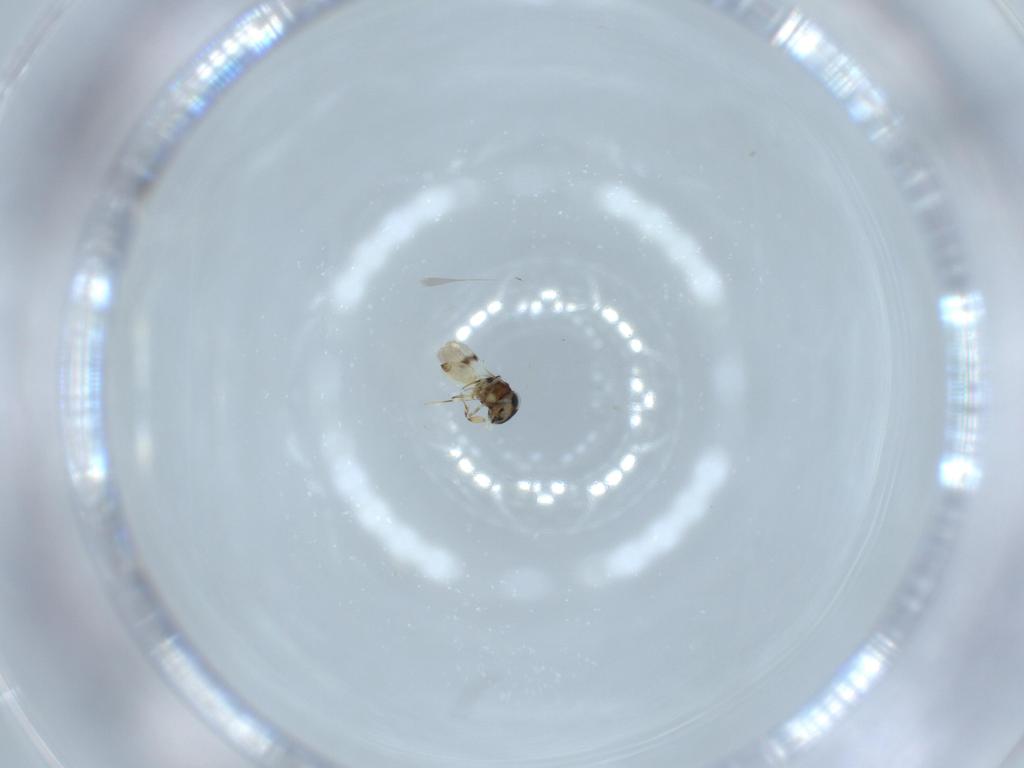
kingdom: Animalia
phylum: Arthropoda
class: Insecta
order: Hymenoptera
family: Scelionidae
